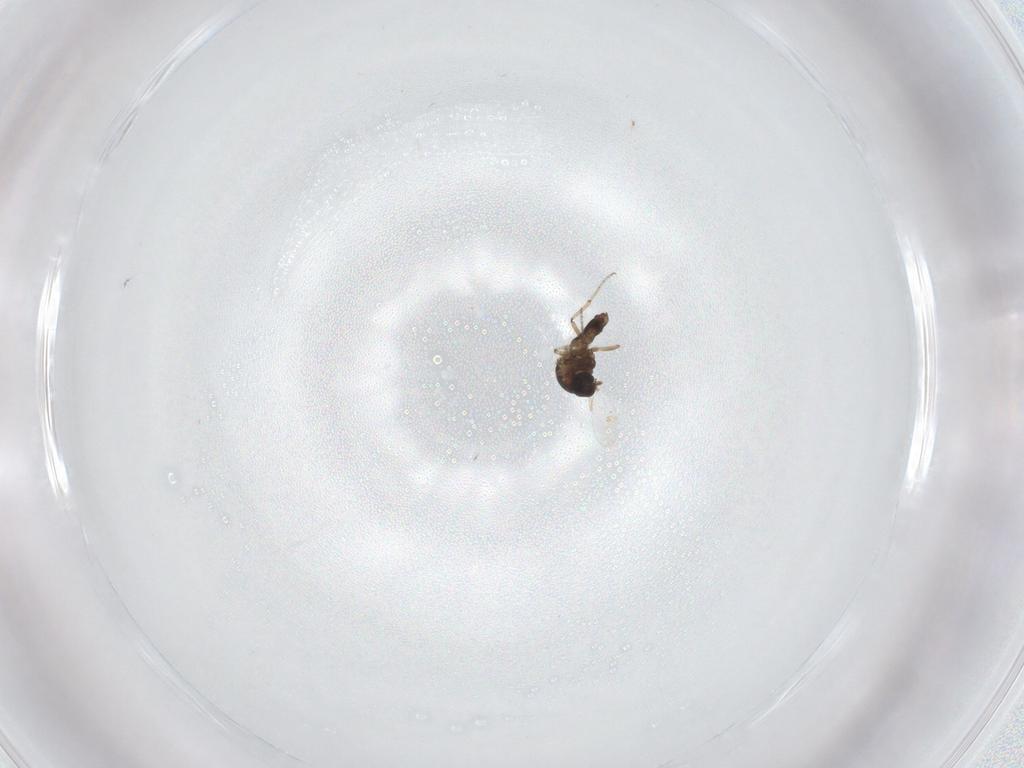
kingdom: Animalia
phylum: Arthropoda
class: Insecta
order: Diptera
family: Ceratopogonidae
